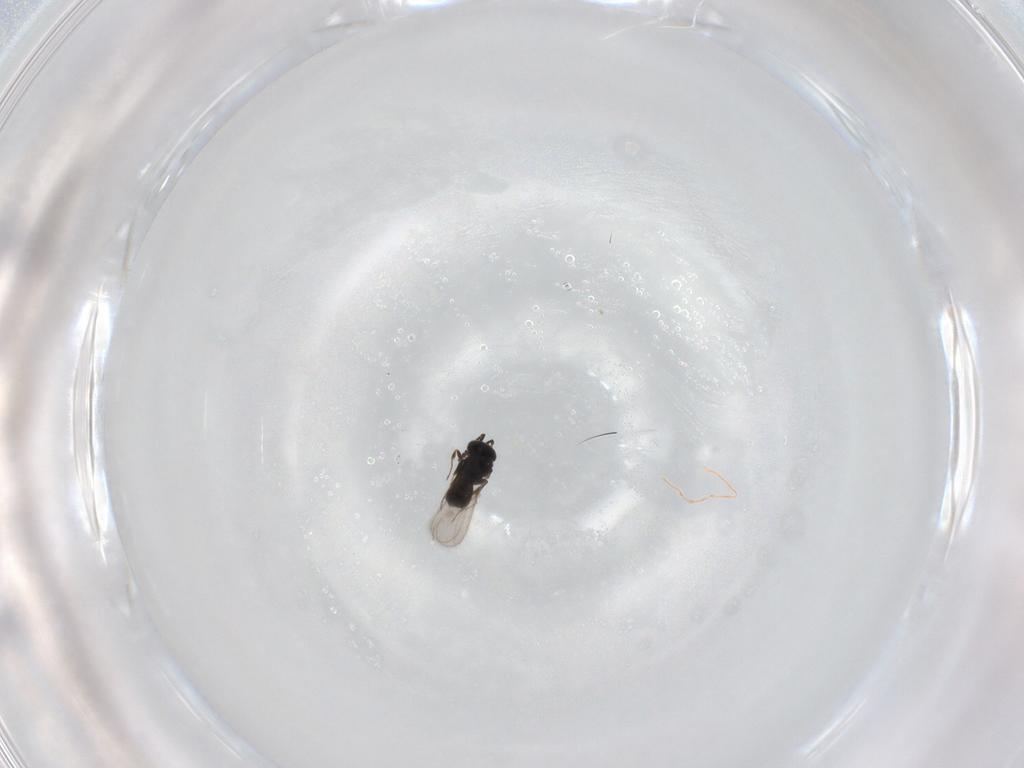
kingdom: Animalia
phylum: Arthropoda
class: Insecta
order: Hymenoptera
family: Scelionidae
